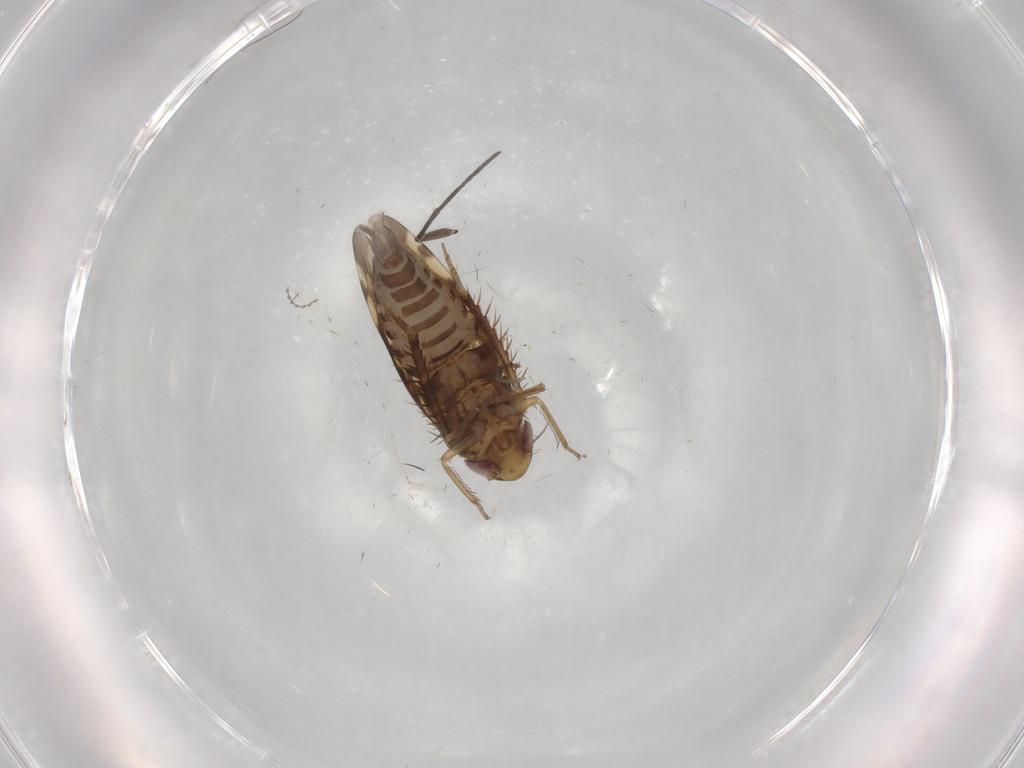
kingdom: Animalia
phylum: Arthropoda
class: Insecta
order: Hemiptera
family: Cicadellidae
